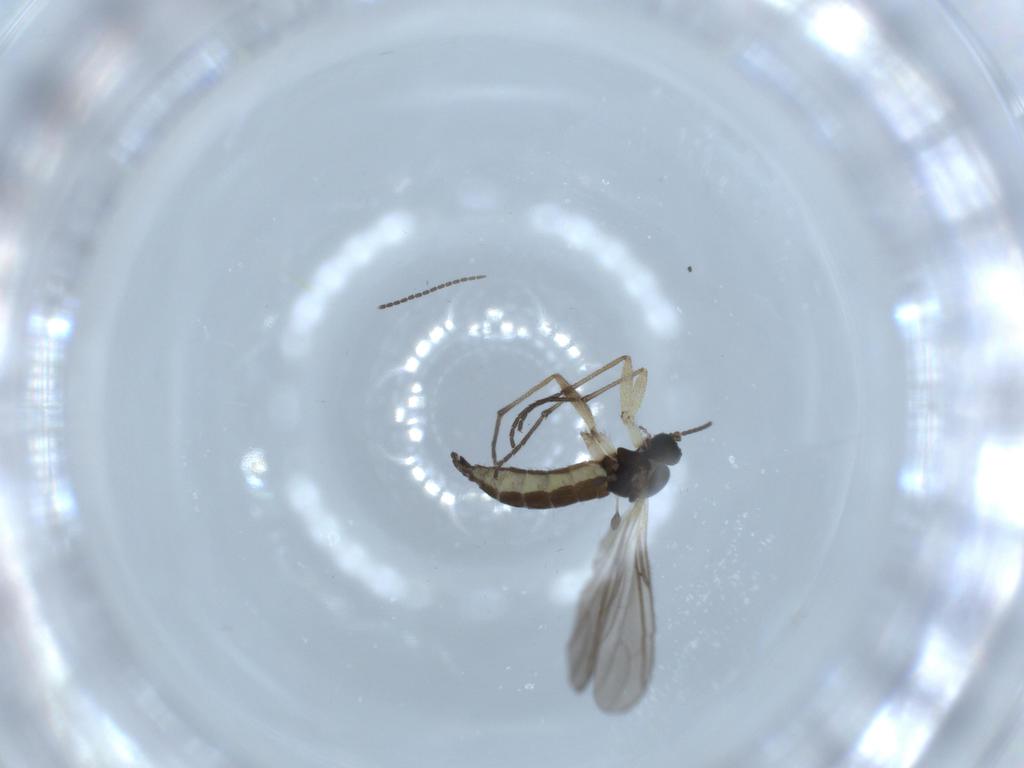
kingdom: Animalia
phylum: Arthropoda
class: Insecta
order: Diptera
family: Sciaridae
